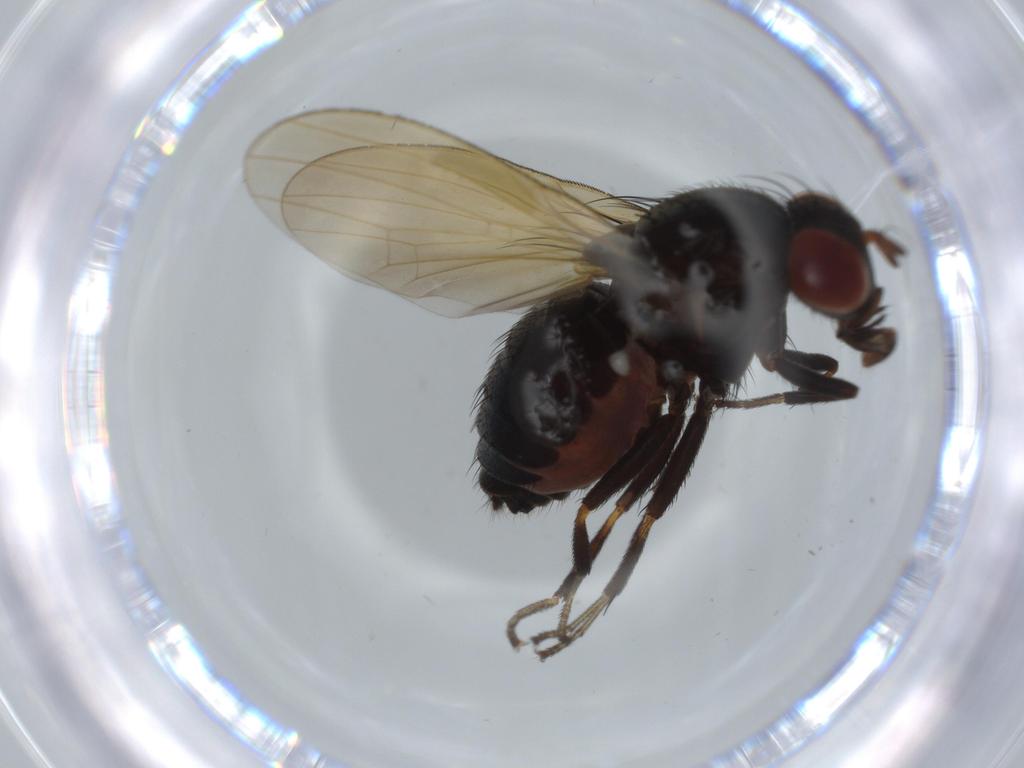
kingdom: Animalia
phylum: Arthropoda
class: Insecta
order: Diptera
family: Lauxaniidae
